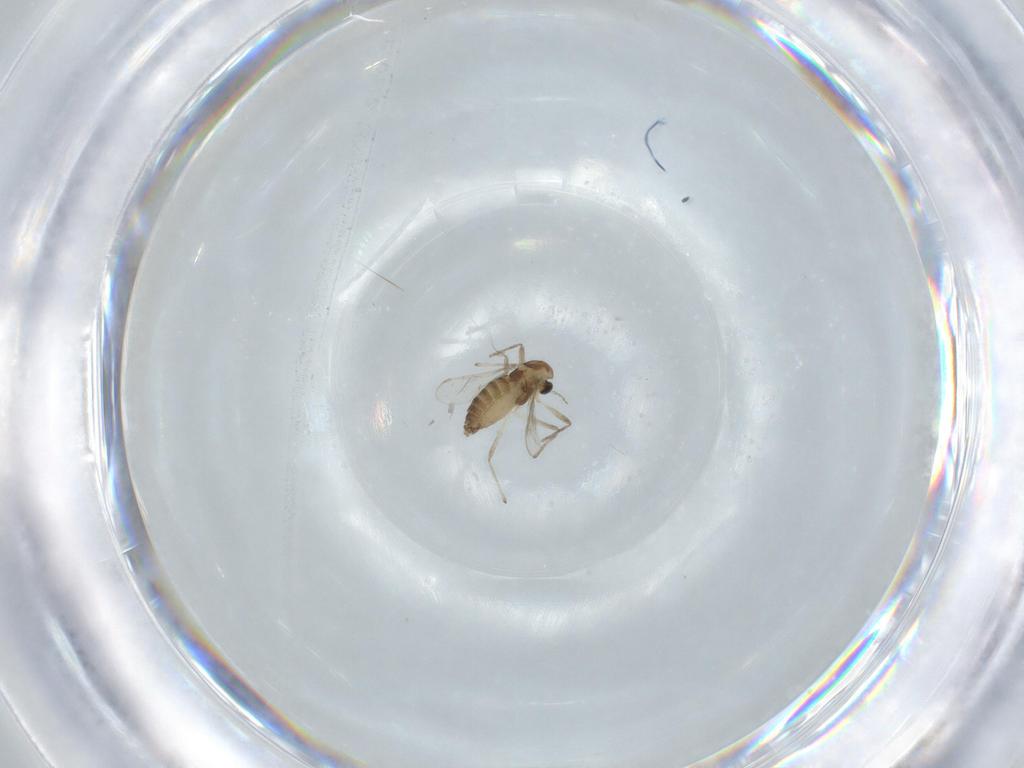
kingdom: Animalia
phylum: Arthropoda
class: Insecta
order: Diptera
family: Chironomidae
